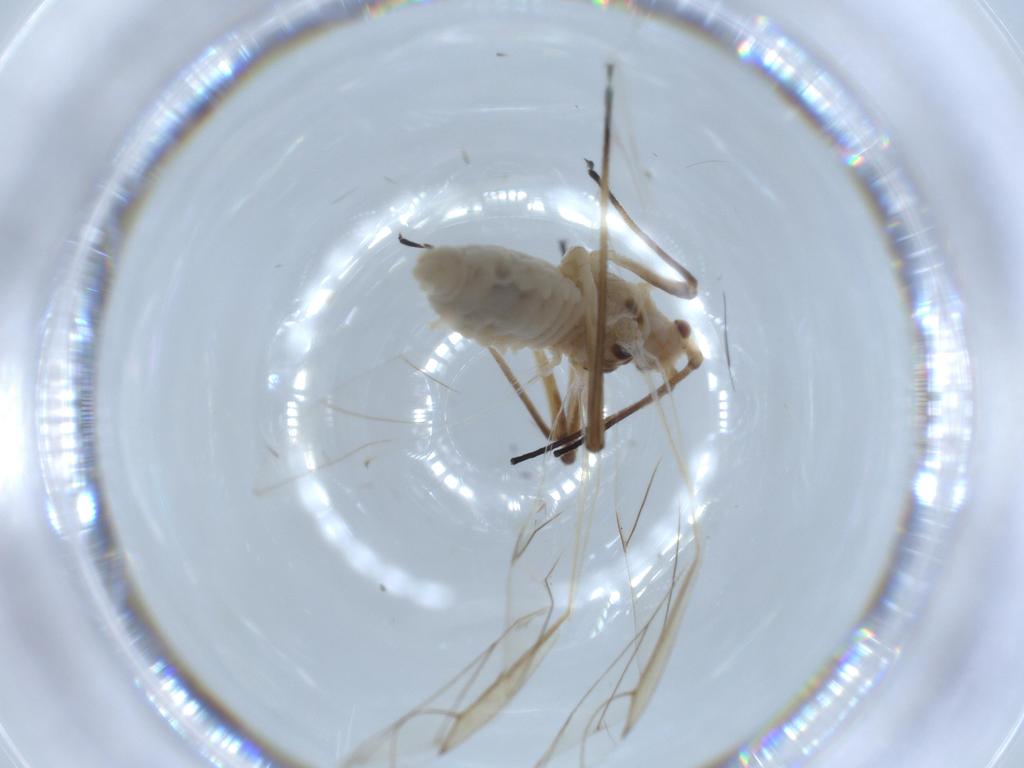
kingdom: Animalia
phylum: Arthropoda
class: Insecta
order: Hemiptera
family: Aphididae
